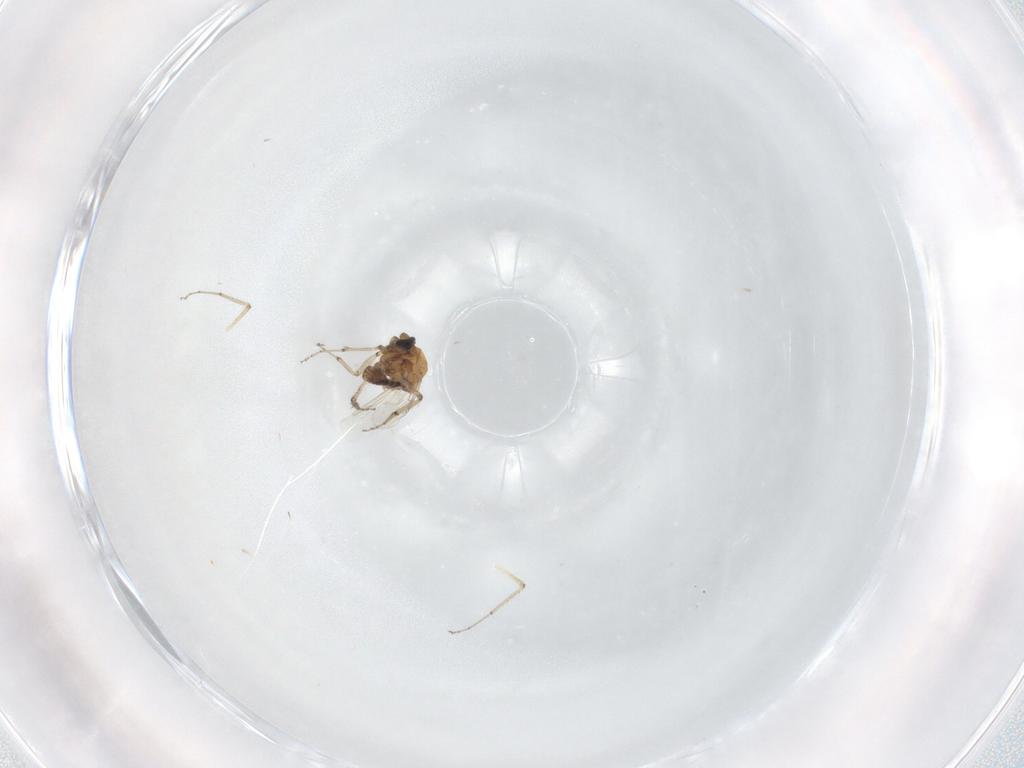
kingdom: Animalia
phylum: Arthropoda
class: Insecta
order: Diptera
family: Ceratopogonidae
